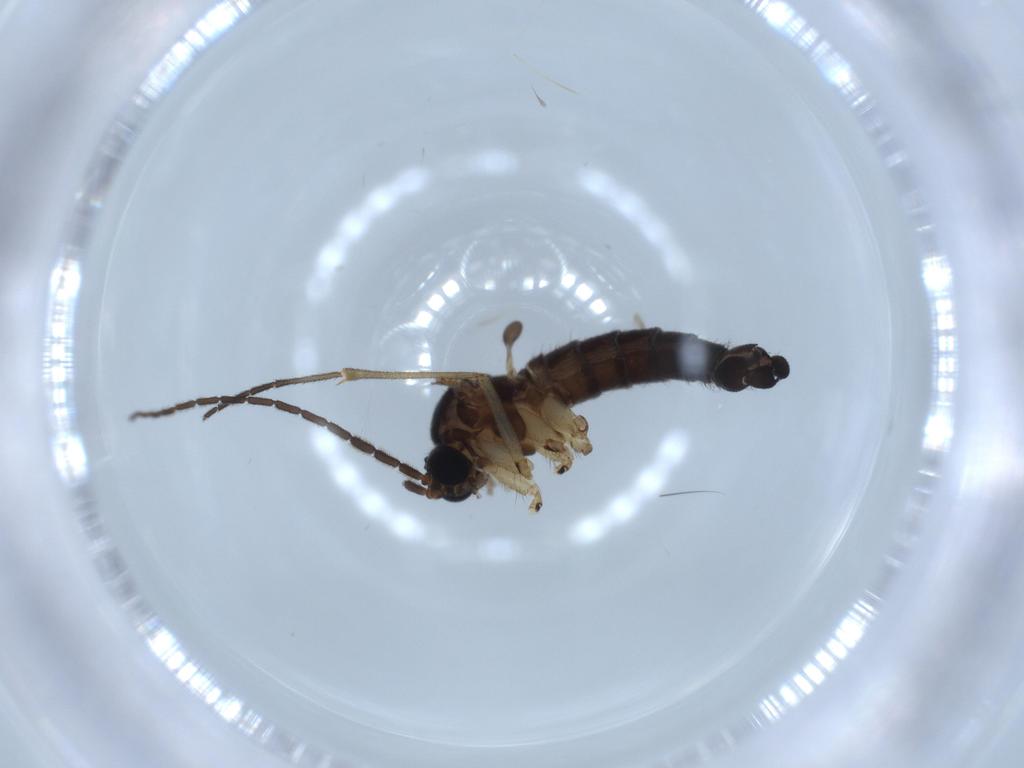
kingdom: Animalia
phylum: Arthropoda
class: Insecta
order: Diptera
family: Sciaridae
